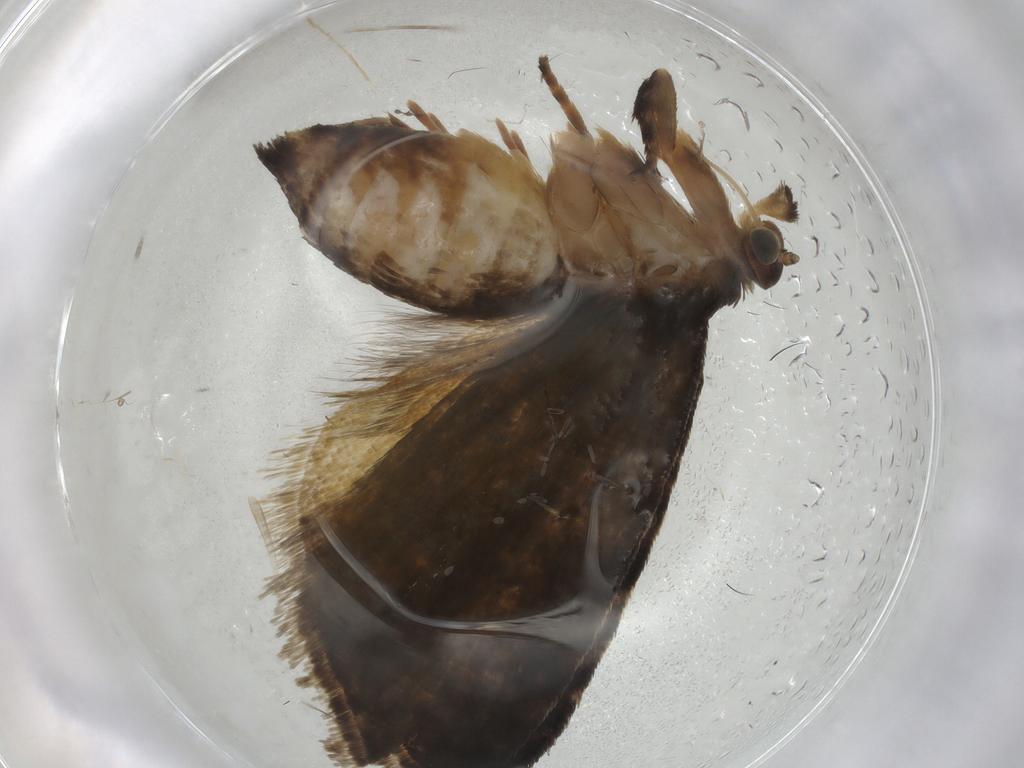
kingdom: Animalia
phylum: Arthropoda
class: Insecta
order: Lepidoptera
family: Tortricidae
